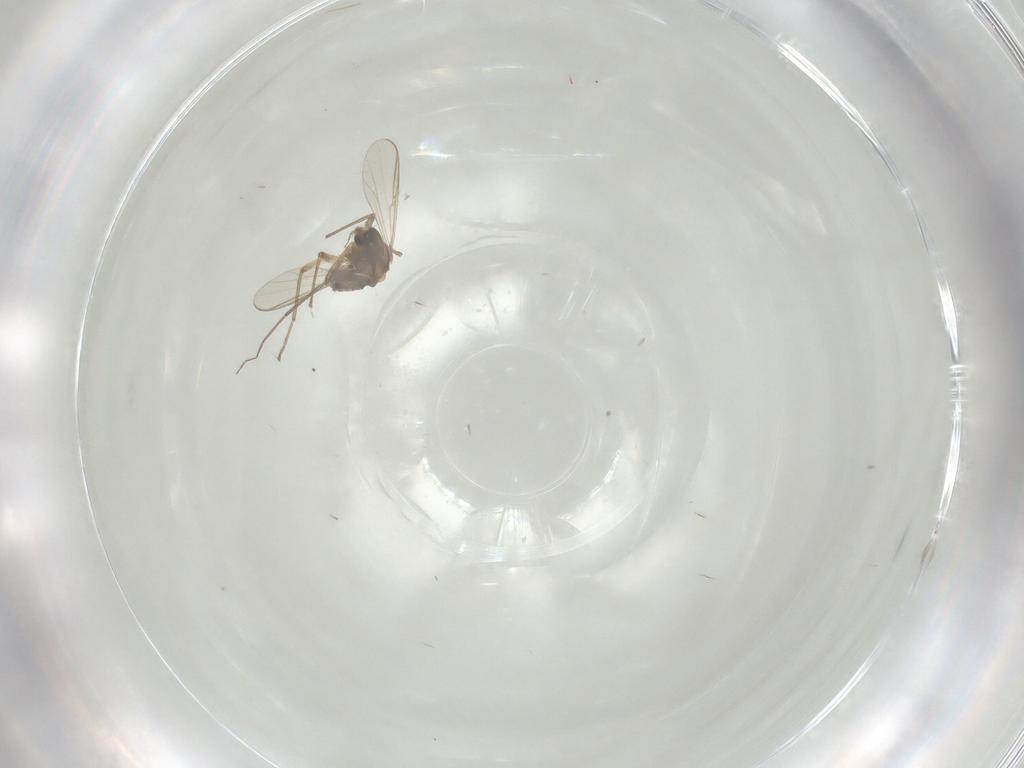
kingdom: Animalia
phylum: Arthropoda
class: Insecta
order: Diptera
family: Chironomidae
